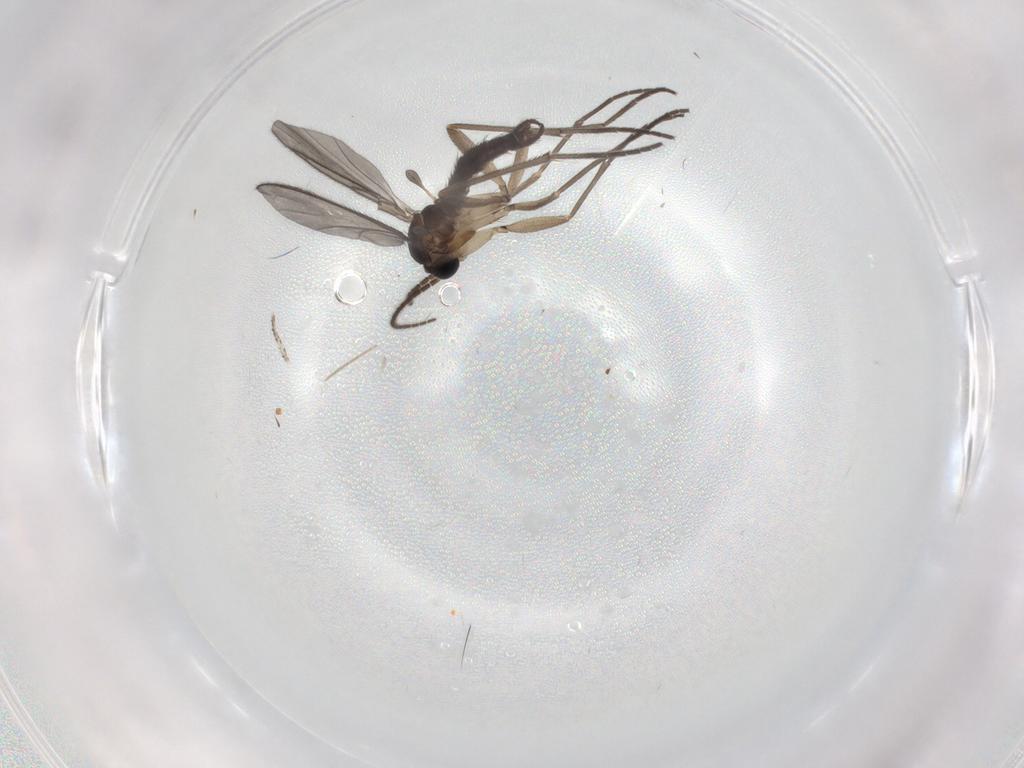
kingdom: Animalia
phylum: Arthropoda
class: Insecta
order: Diptera
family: Sciaridae
